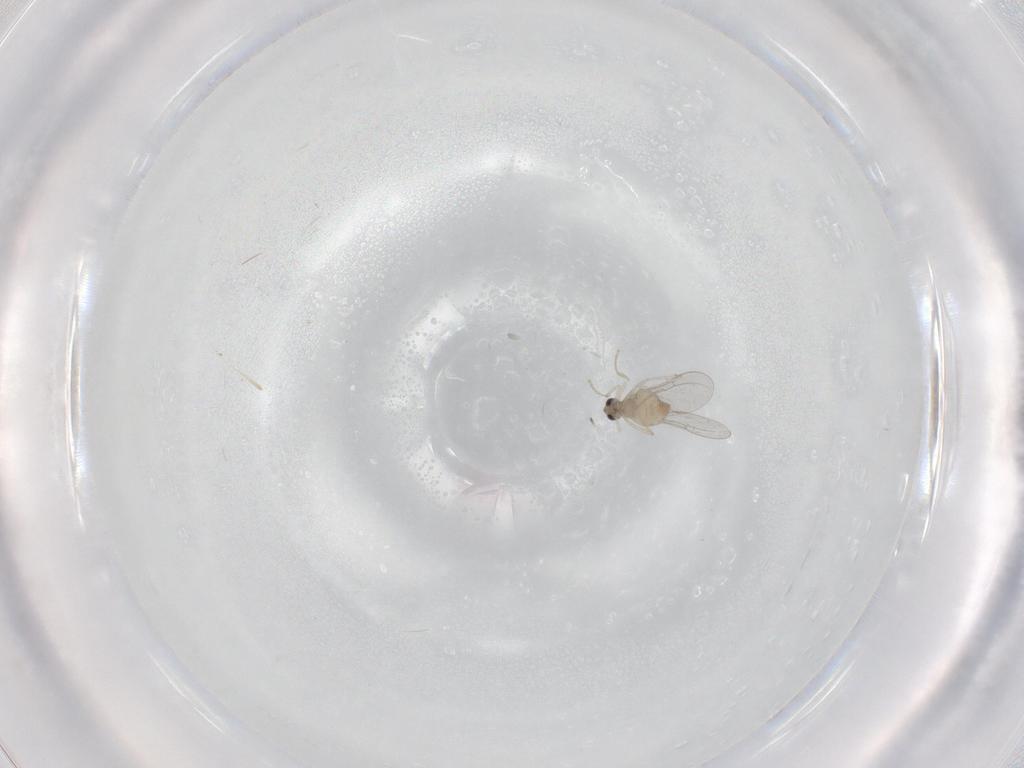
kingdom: Animalia
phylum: Arthropoda
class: Insecta
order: Diptera
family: Cecidomyiidae
